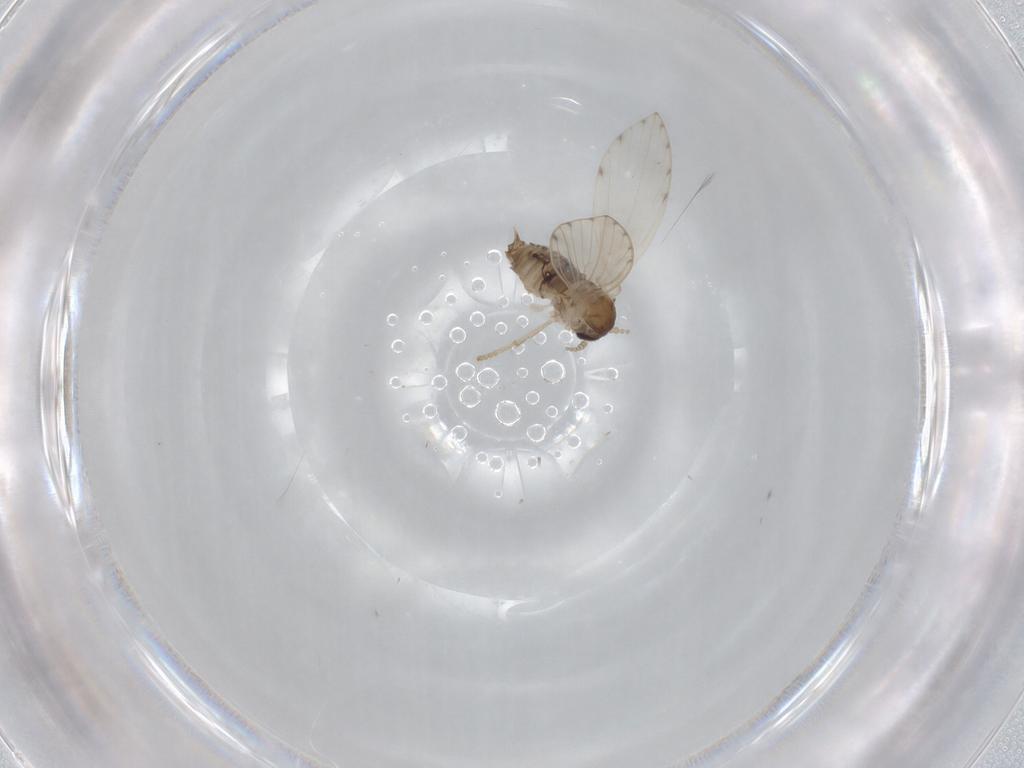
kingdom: Animalia
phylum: Arthropoda
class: Insecta
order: Diptera
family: Psychodidae
